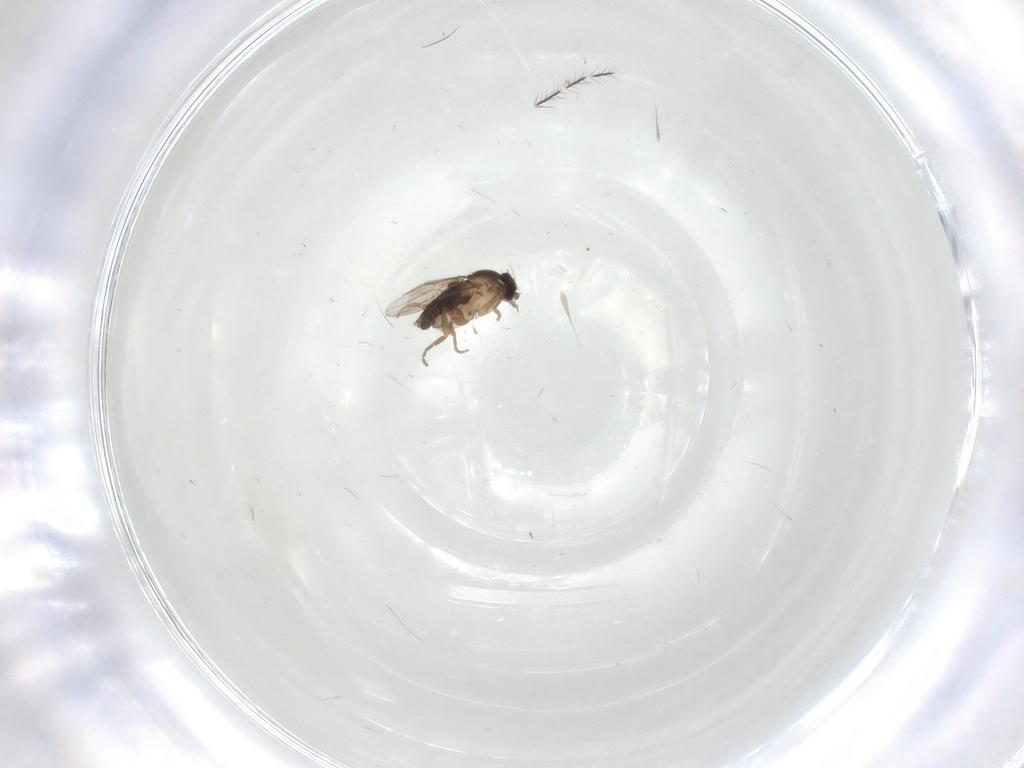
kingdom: Animalia
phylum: Arthropoda
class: Insecta
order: Diptera
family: Phoridae
